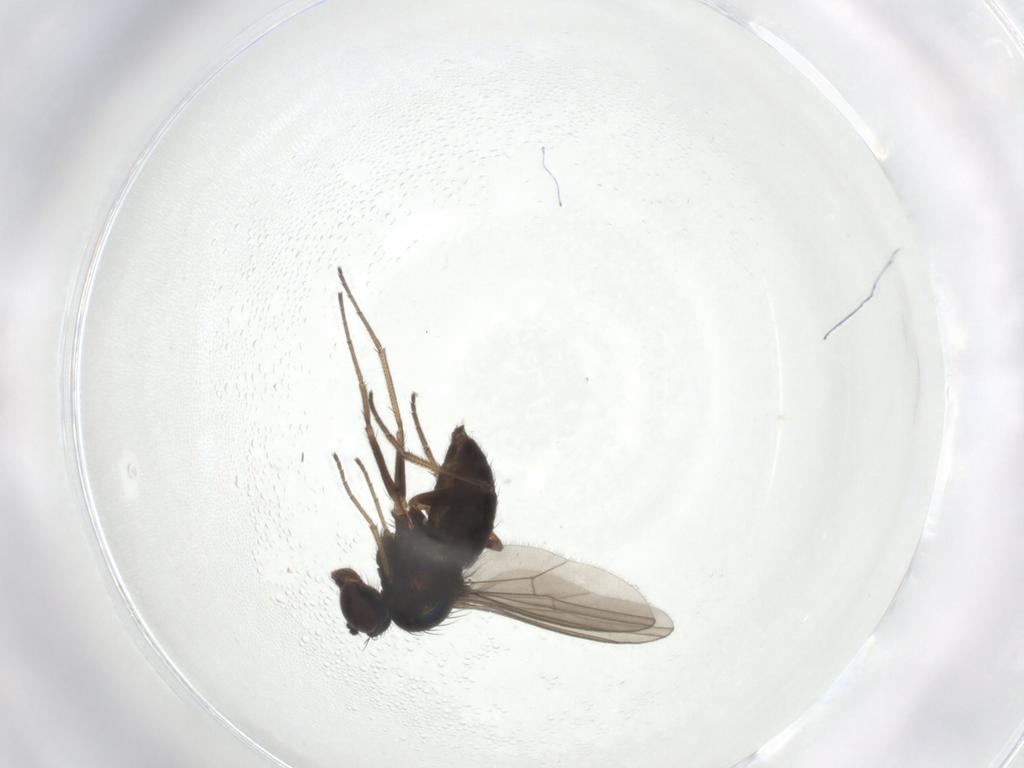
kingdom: Animalia
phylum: Arthropoda
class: Insecta
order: Diptera
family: Dolichopodidae
